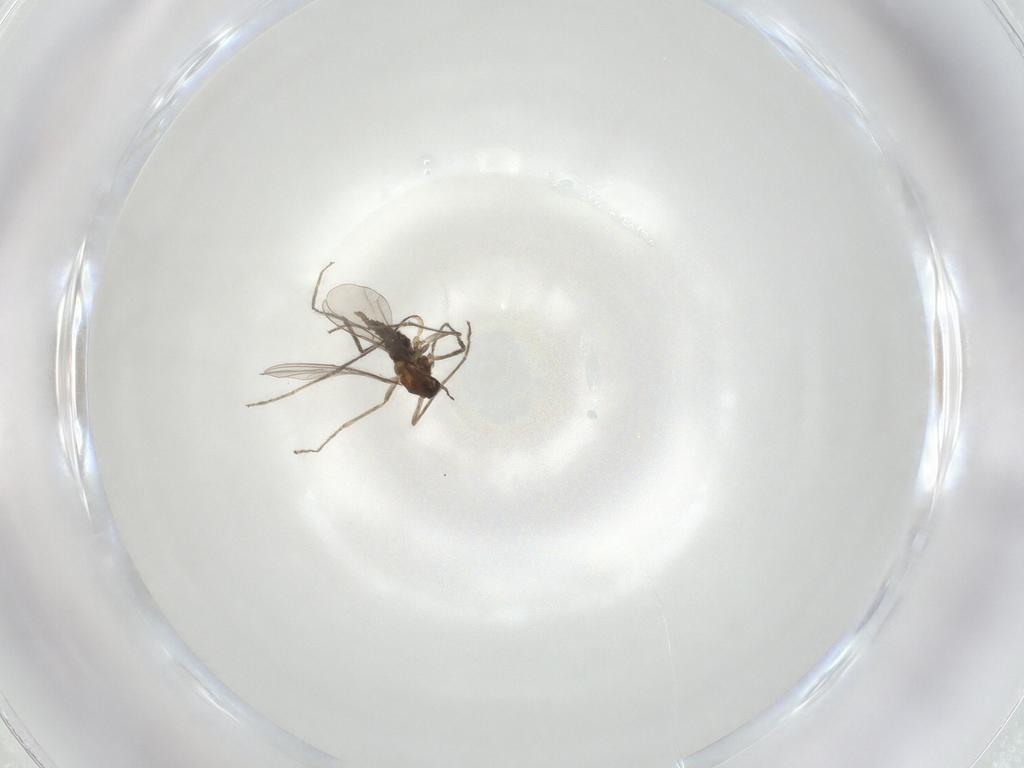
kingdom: Animalia
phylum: Arthropoda
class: Insecta
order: Diptera
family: Cecidomyiidae
